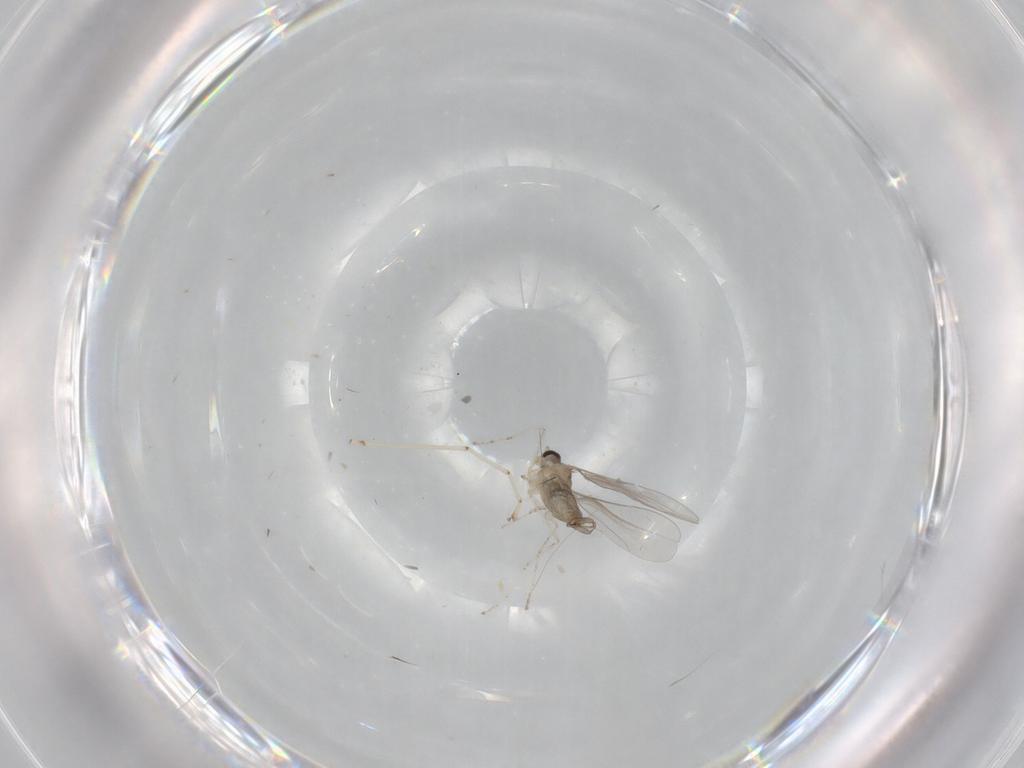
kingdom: Animalia
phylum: Arthropoda
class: Insecta
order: Diptera
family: Cecidomyiidae
